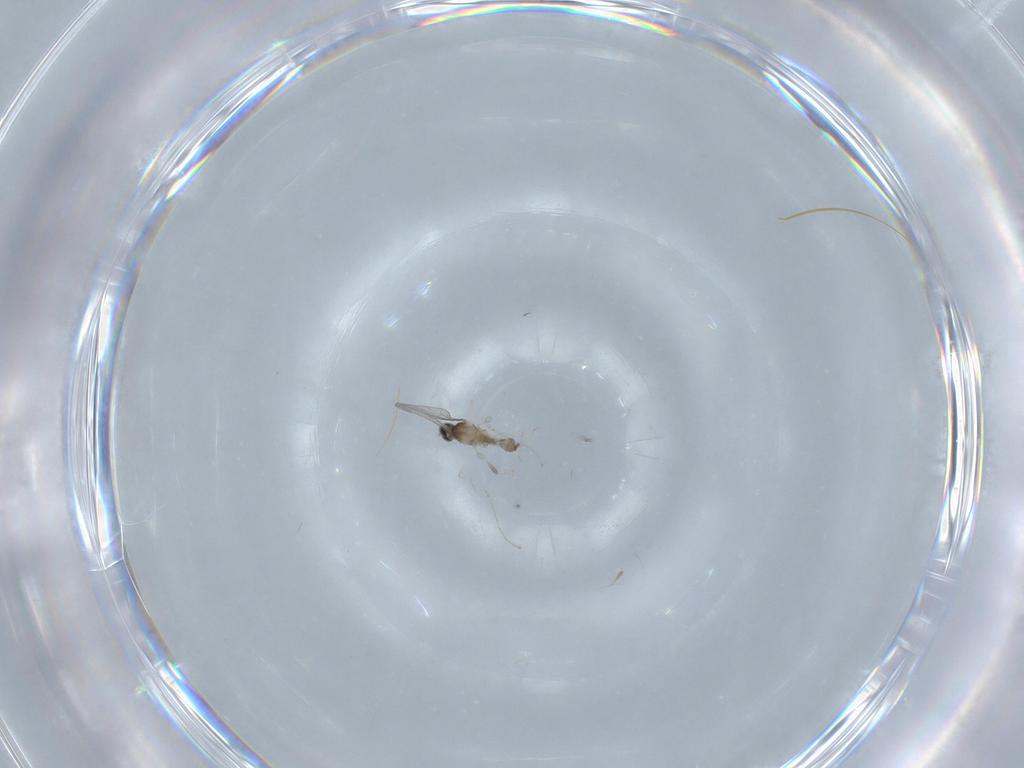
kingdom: Animalia
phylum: Arthropoda
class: Insecta
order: Diptera
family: Cecidomyiidae
